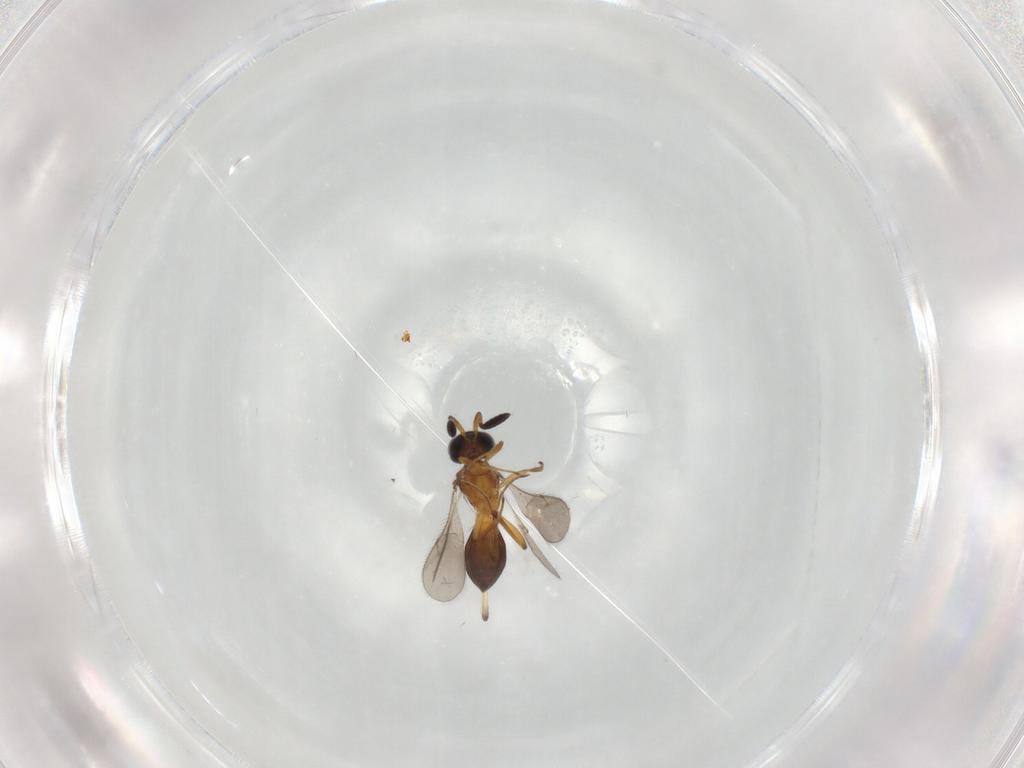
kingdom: Animalia
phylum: Arthropoda
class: Insecta
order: Hymenoptera
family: Scelionidae
